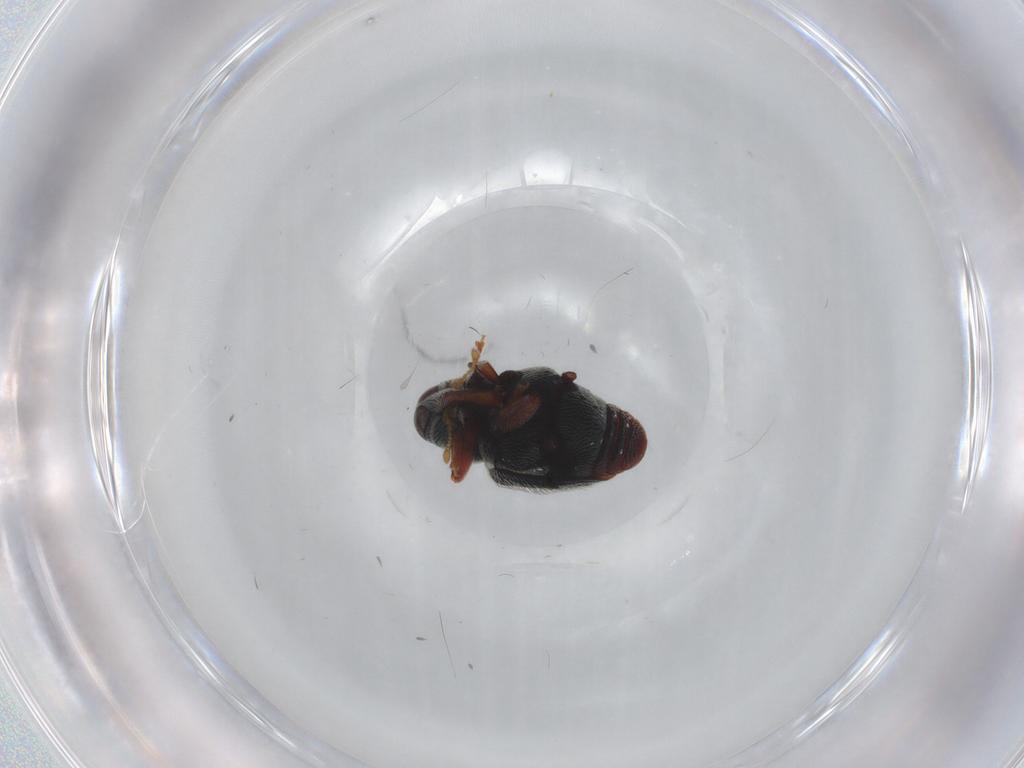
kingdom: Animalia
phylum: Arthropoda
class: Insecta
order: Coleoptera
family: Curculionidae
